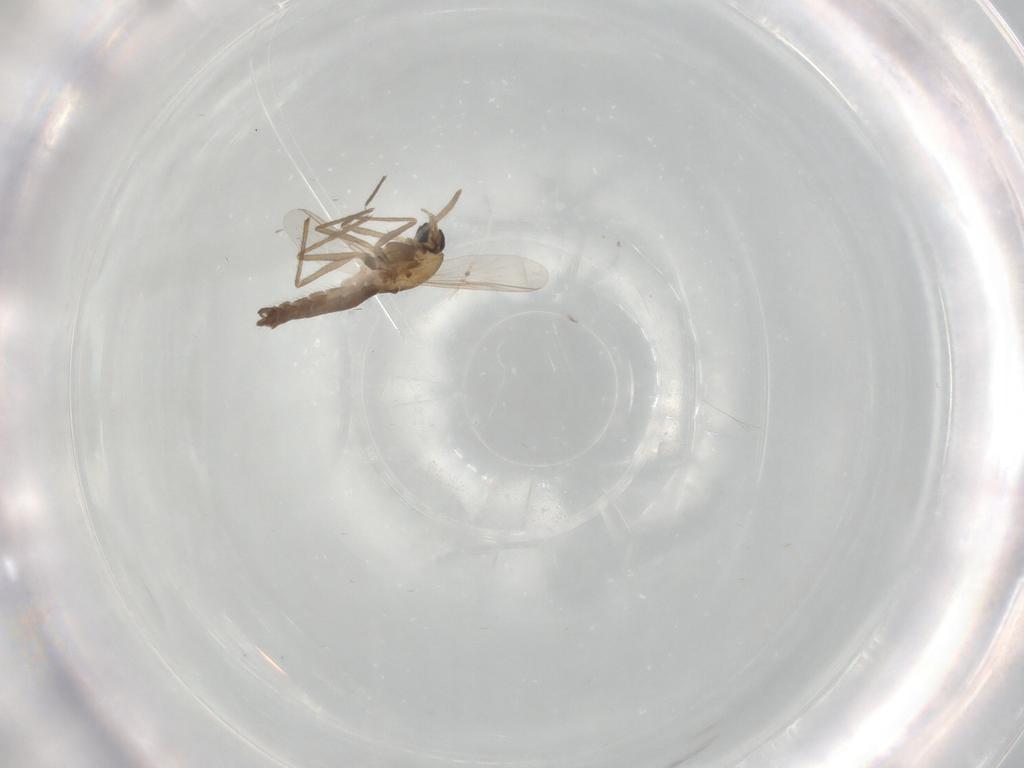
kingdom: Animalia
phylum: Arthropoda
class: Insecta
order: Diptera
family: Chironomidae
